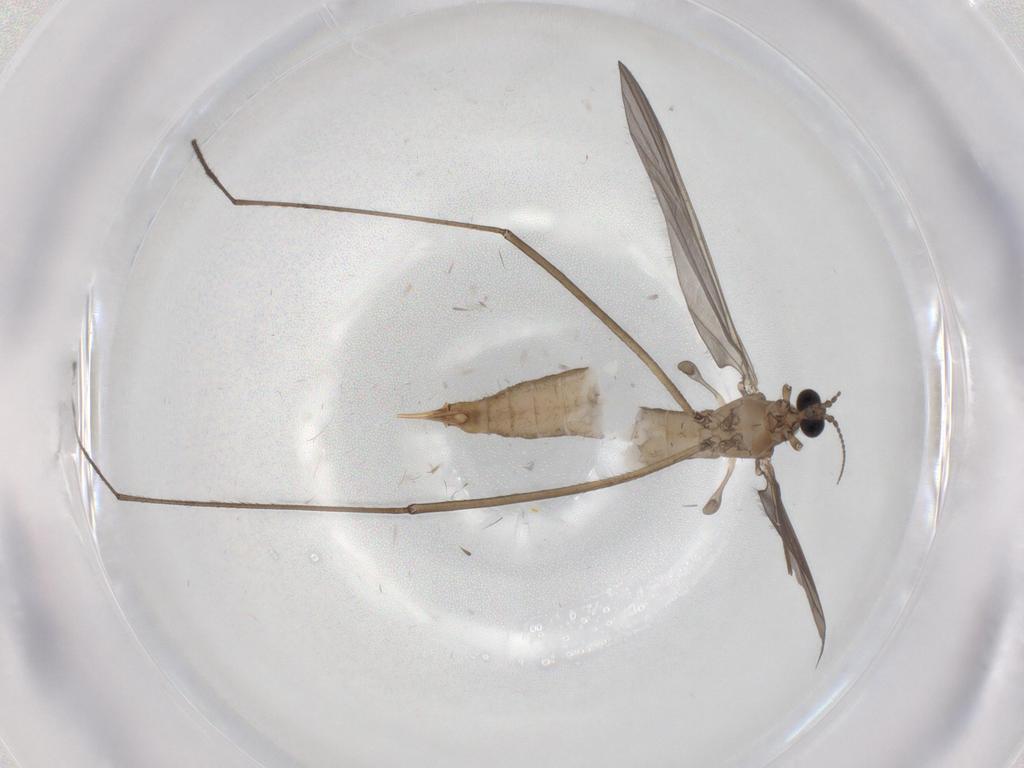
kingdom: Animalia
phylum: Arthropoda
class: Insecta
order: Diptera
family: Limoniidae
